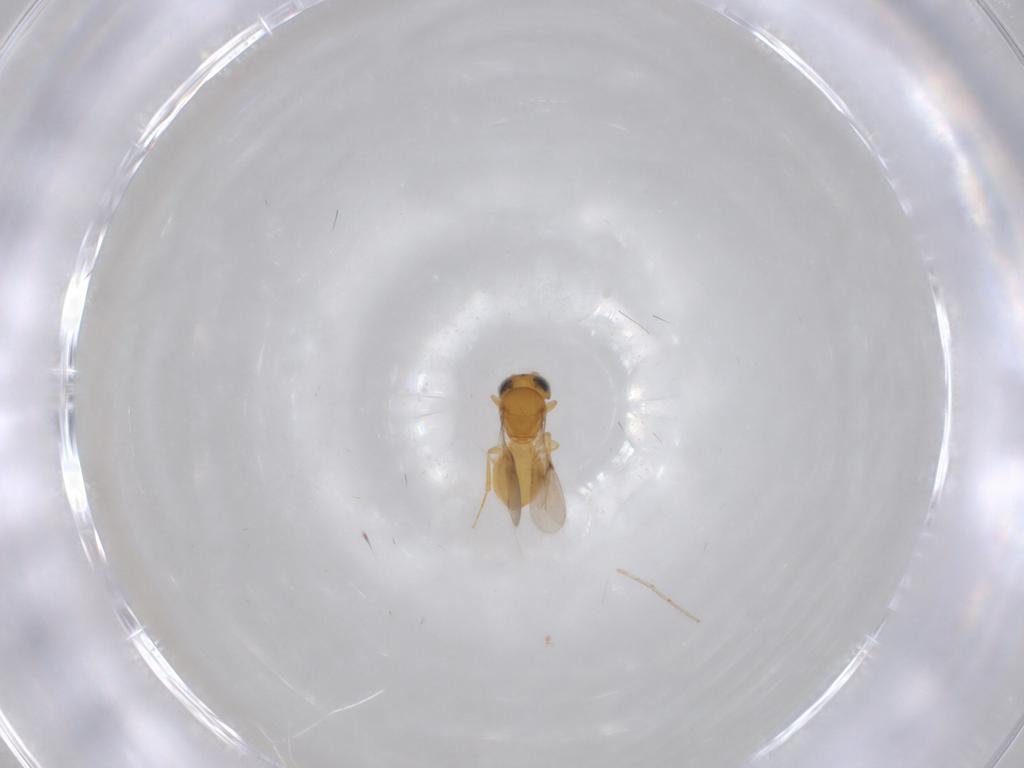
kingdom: Animalia
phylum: Arthropoda
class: Insecta
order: Hymenoptera
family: Scelionidae
